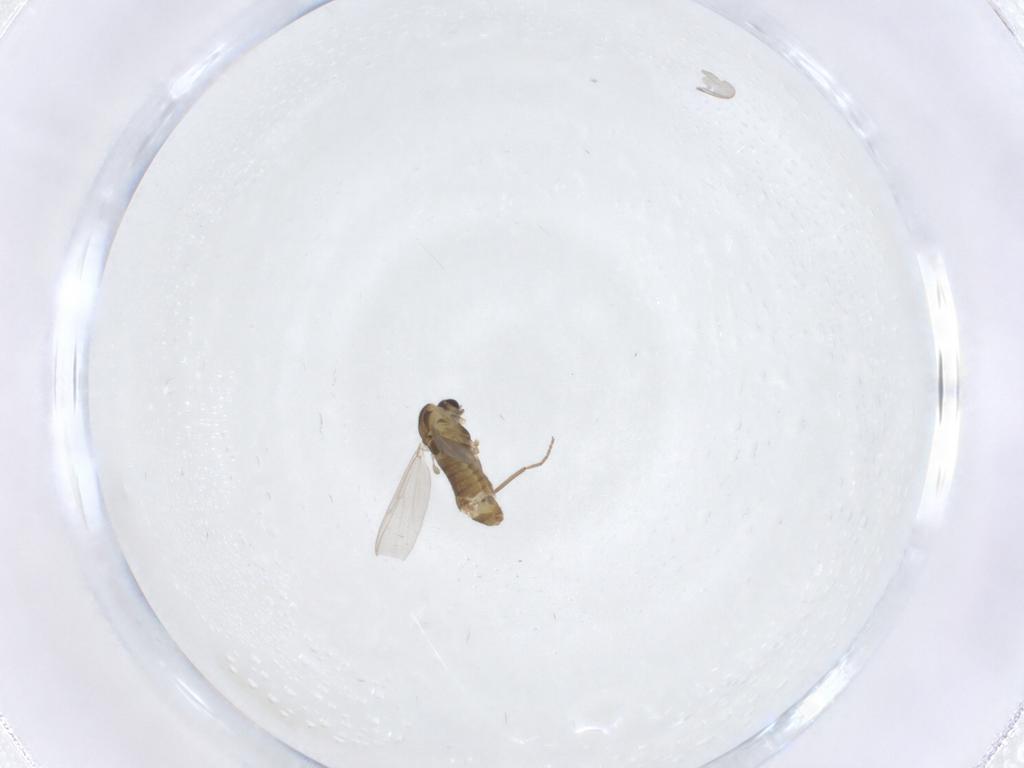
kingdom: Animalia
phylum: Arthropoda
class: Insecta
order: Diptera
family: Chironomidae
